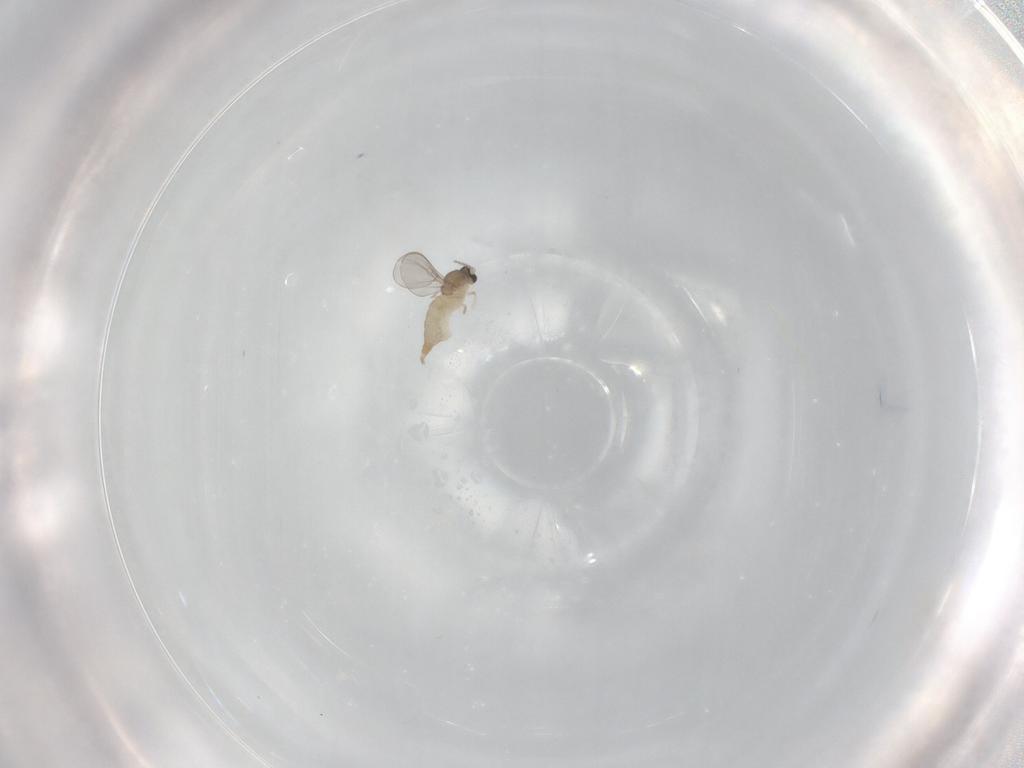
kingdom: Animalia
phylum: Arthropoda
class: Insecta
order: Diptera
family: Cecidomyiidae
